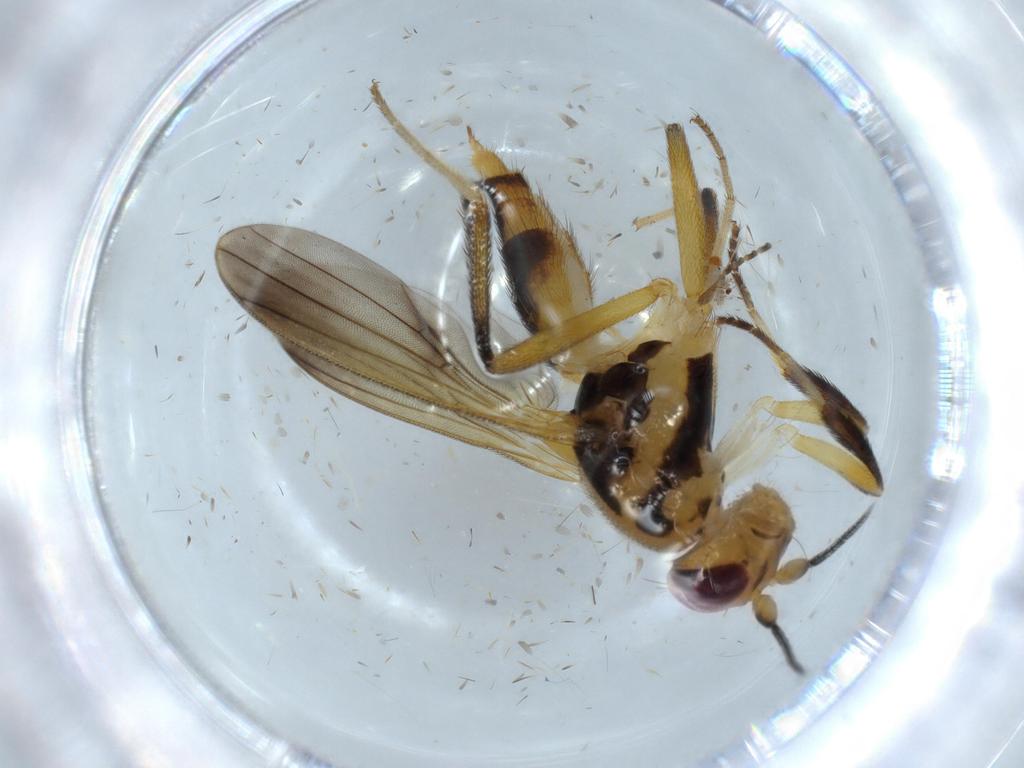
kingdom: Animalia
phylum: Arthropoda
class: Insecta
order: Diptera
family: Clusiidae
